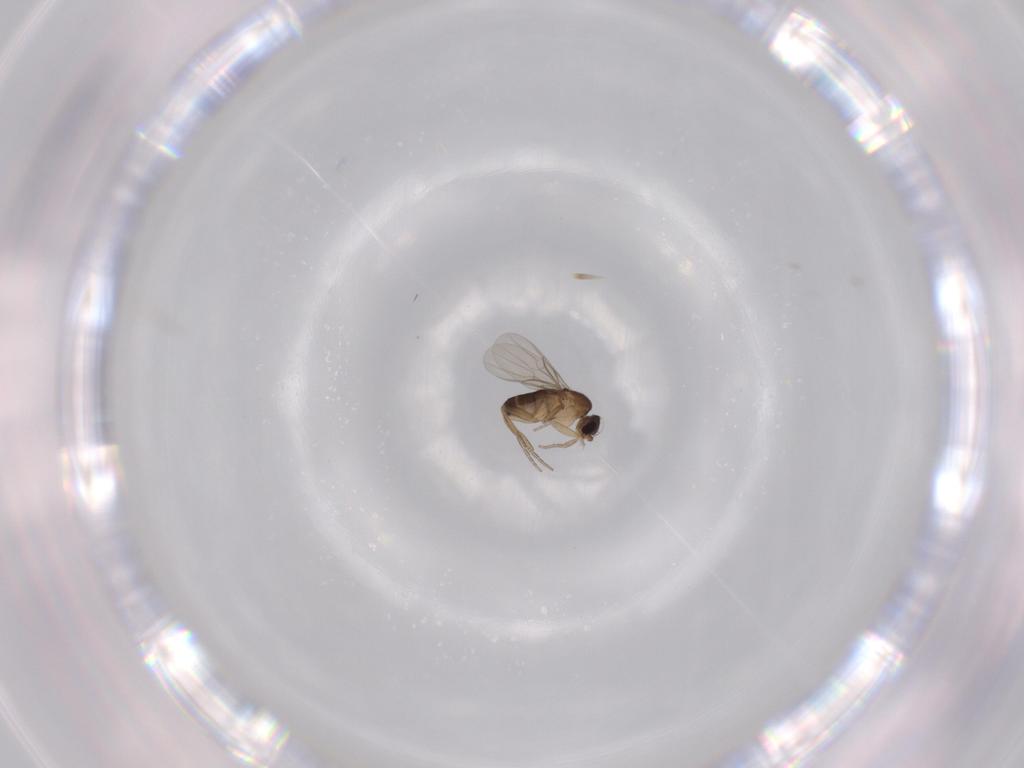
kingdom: Animalia
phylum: Arthropoda
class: Insecta
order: Diptera
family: Phoridae
